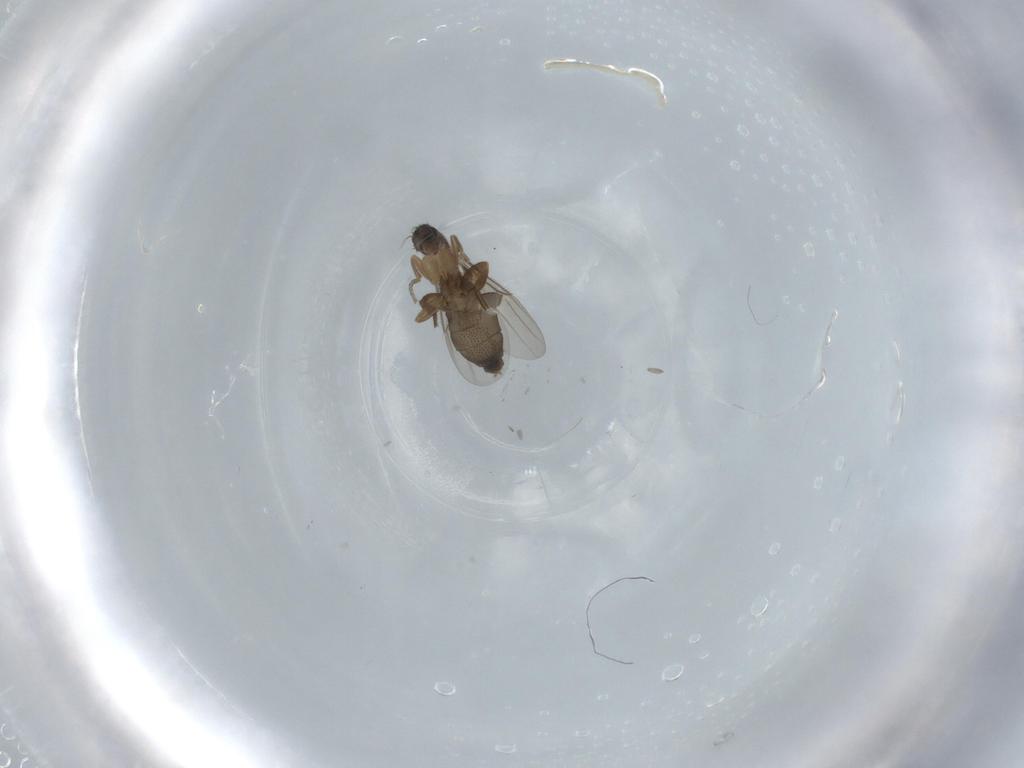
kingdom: Animalia
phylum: Arthropoda
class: Insecta
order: Diptera
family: Phoridae
